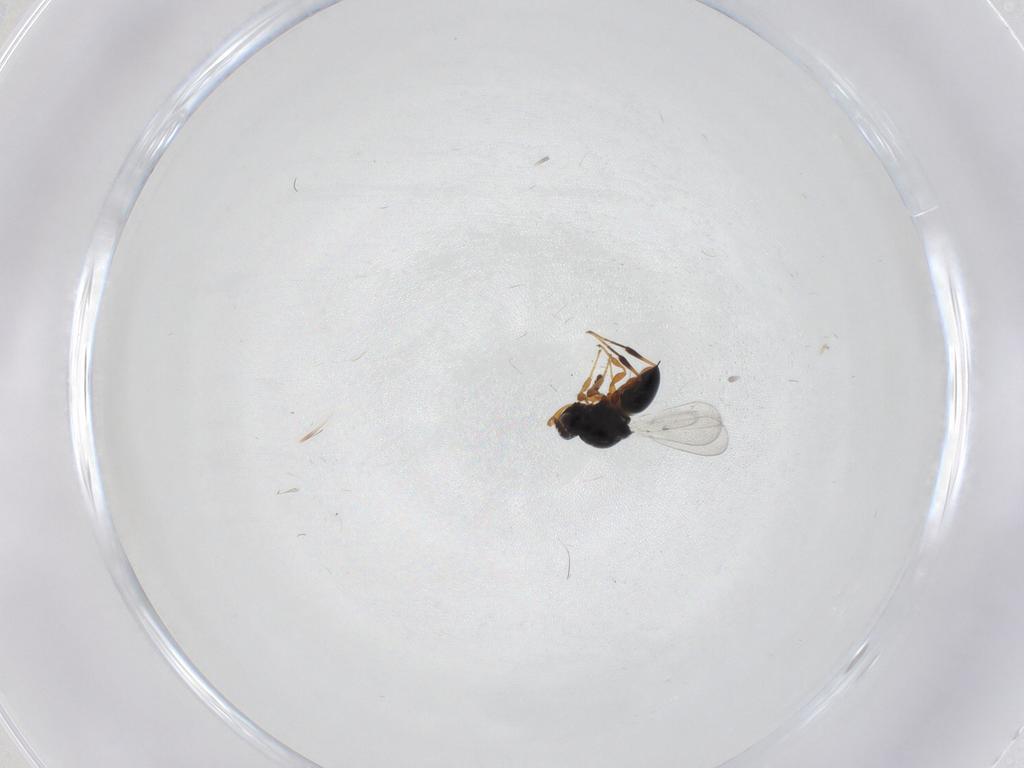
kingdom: Animalia
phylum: Arthropoda
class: Insecta
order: Hymenoptera
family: Platygastridae
